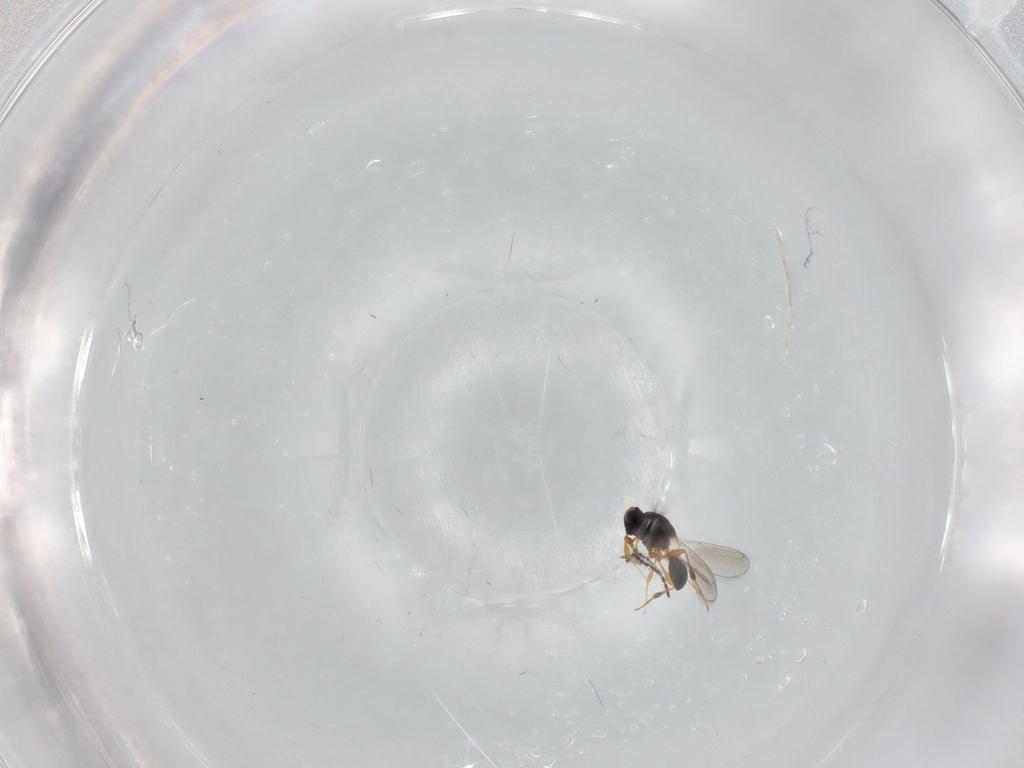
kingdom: Animalia
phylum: Arthropoda
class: Insecta
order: Hymenoptera
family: Platygastridae
